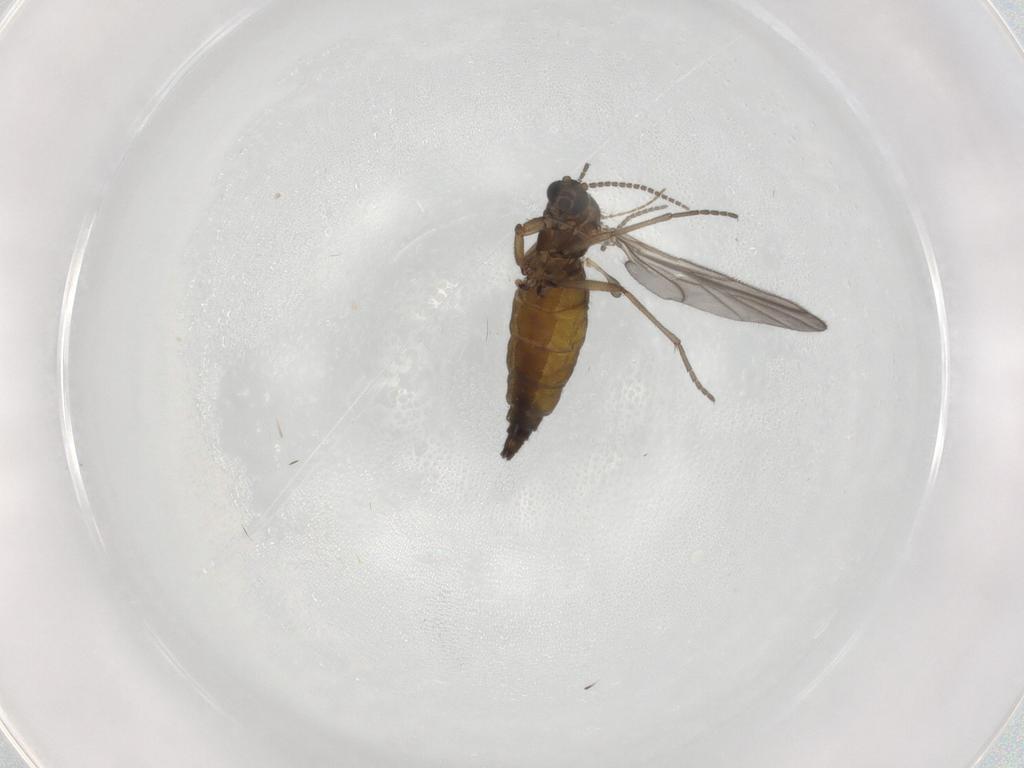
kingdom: Animalia
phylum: Arthropoda
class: Insecta
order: Diptera
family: Sciaridae
